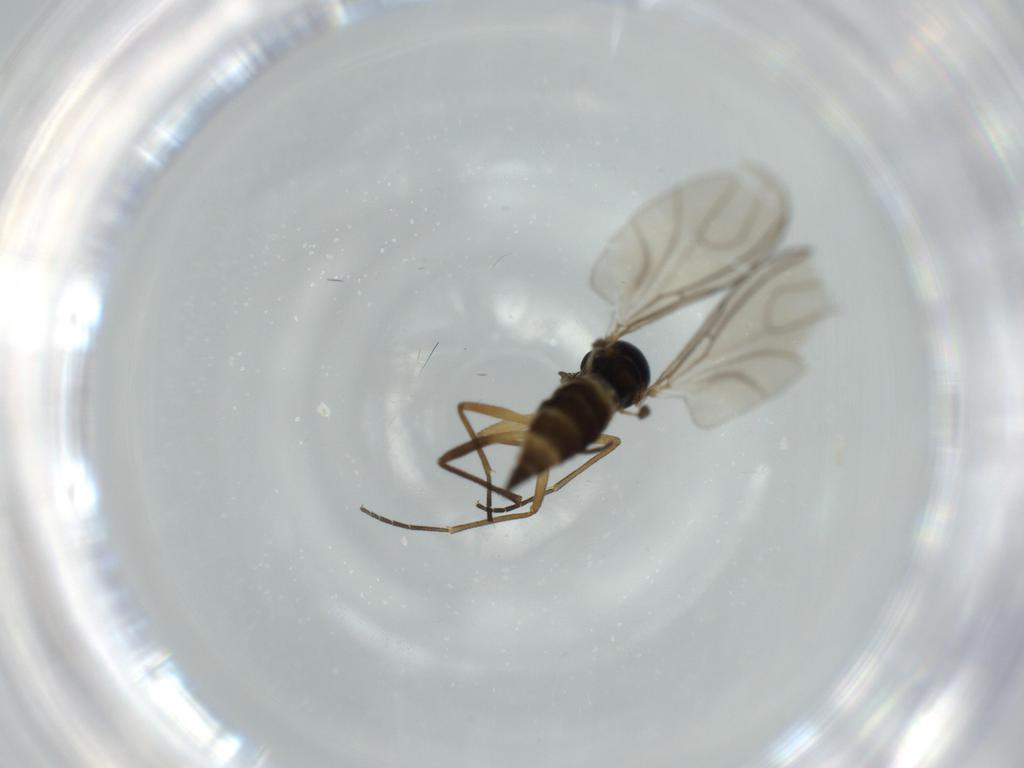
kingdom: Animalia
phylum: Arthropoda
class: Insecta
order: Diptera
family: Sciaridae
